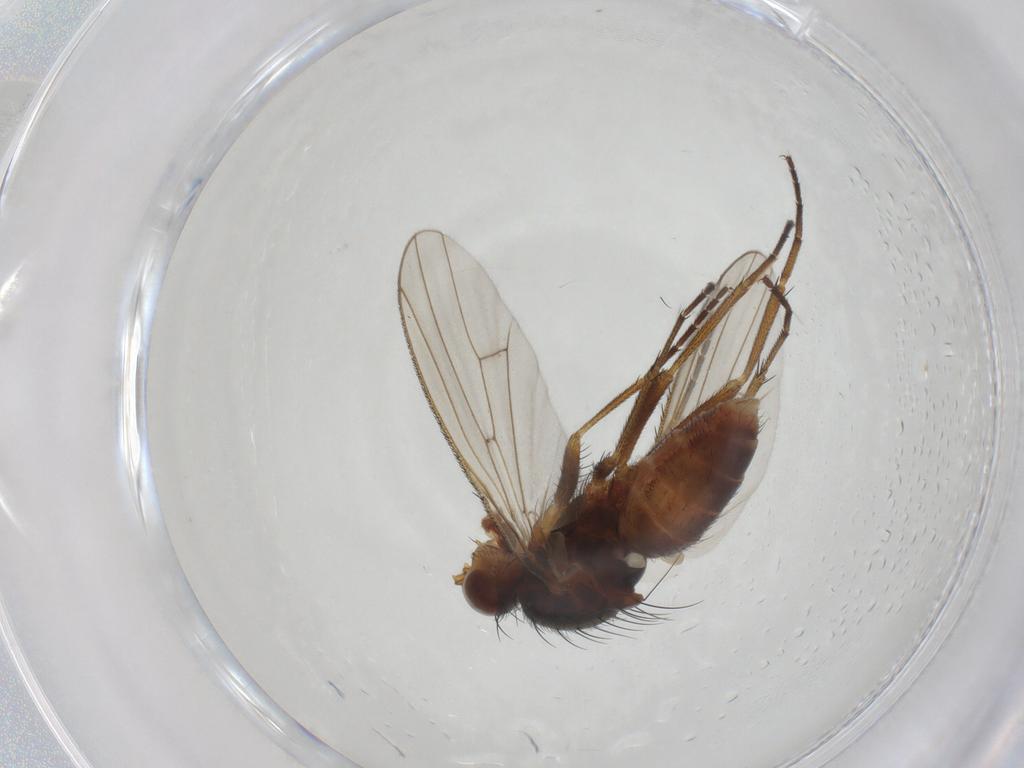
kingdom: Animalia
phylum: Arthropoda
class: Insecta
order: Diptera
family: Heleomyzidae
